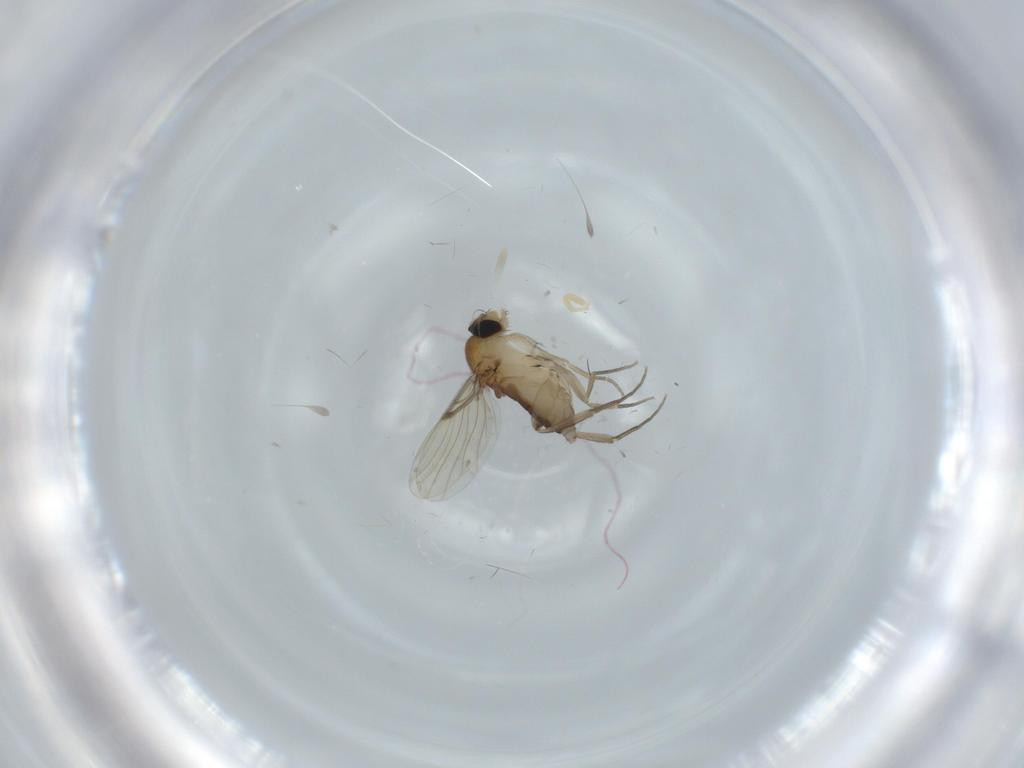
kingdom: Animalia
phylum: Arthropoda
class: Insecta
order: Diptera
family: Phoridae
